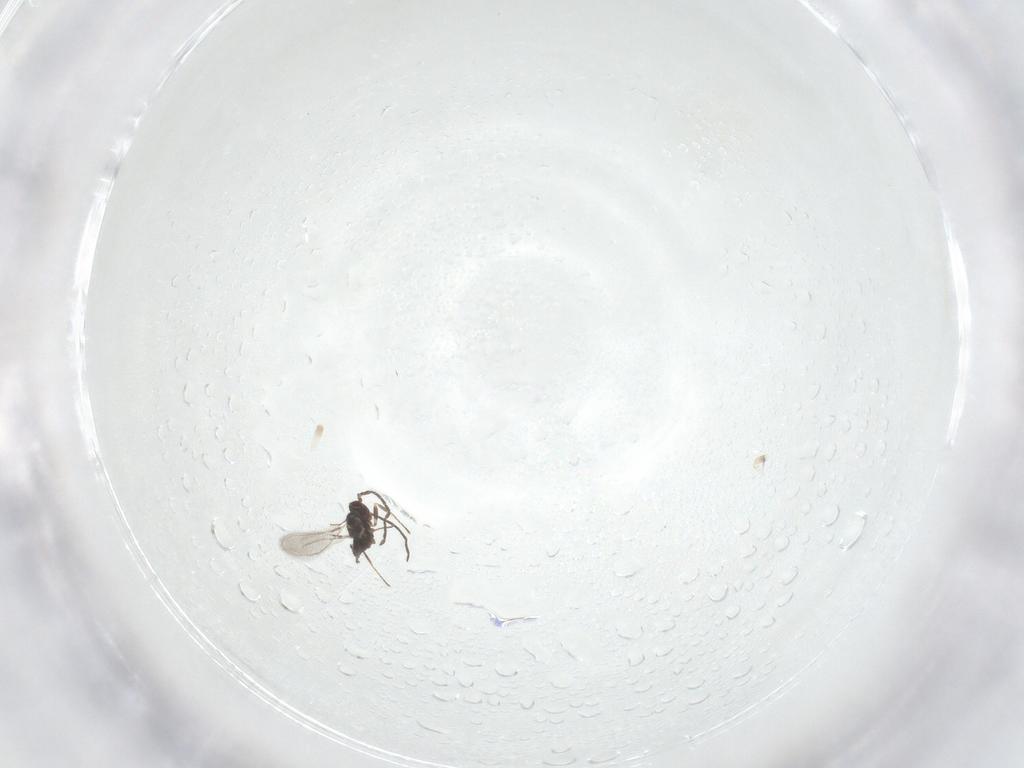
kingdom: Animalia
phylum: Arthropoda
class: Insecta
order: Hymenoptera
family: Mymaridae
